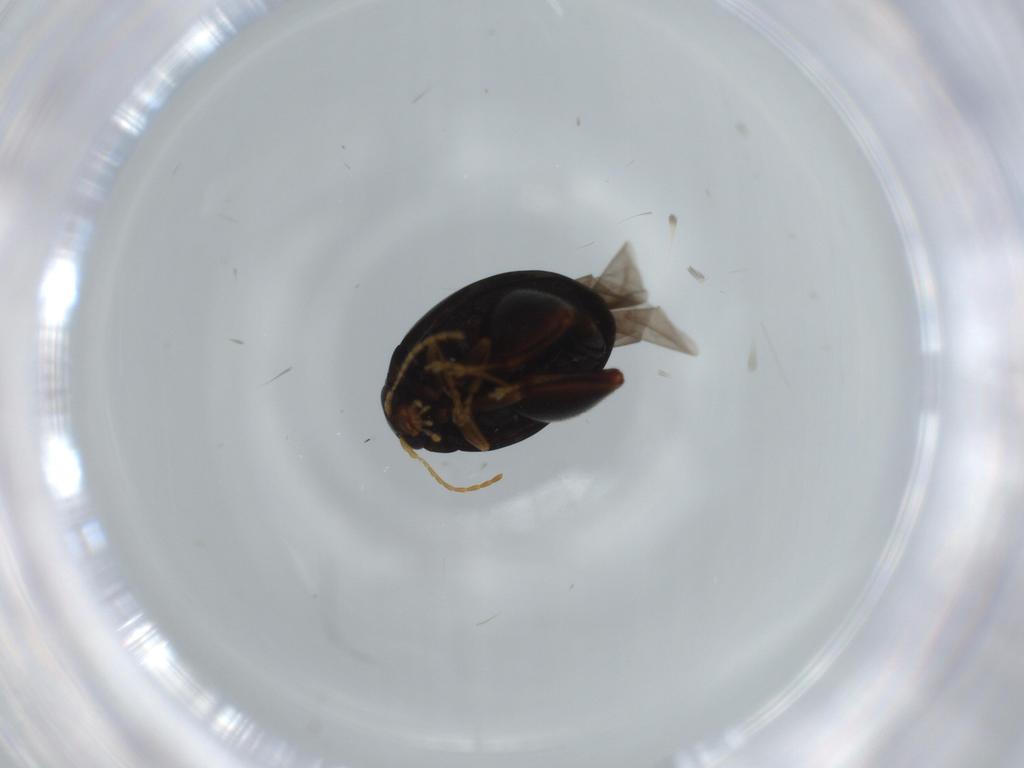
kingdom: Animalia
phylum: Arthropoda
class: Insecta
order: Coleoptera
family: Chrysomelidae
